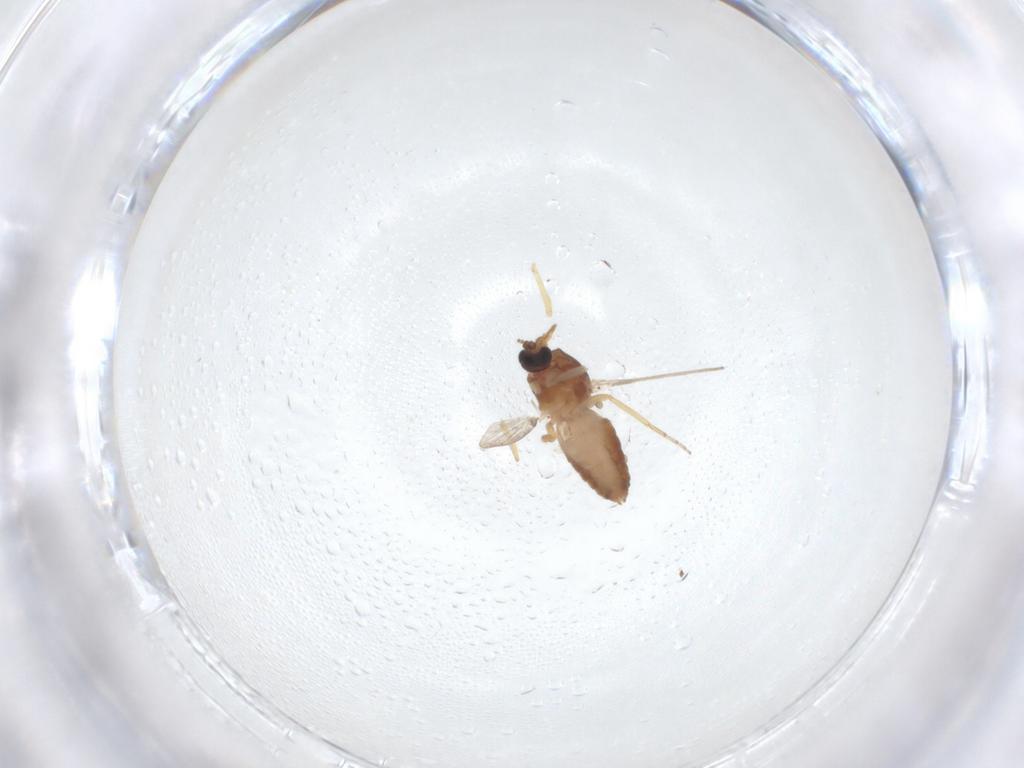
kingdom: Animalia
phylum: Arthropoda
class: Insecta
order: Diptera
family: Ceratopogonidae
